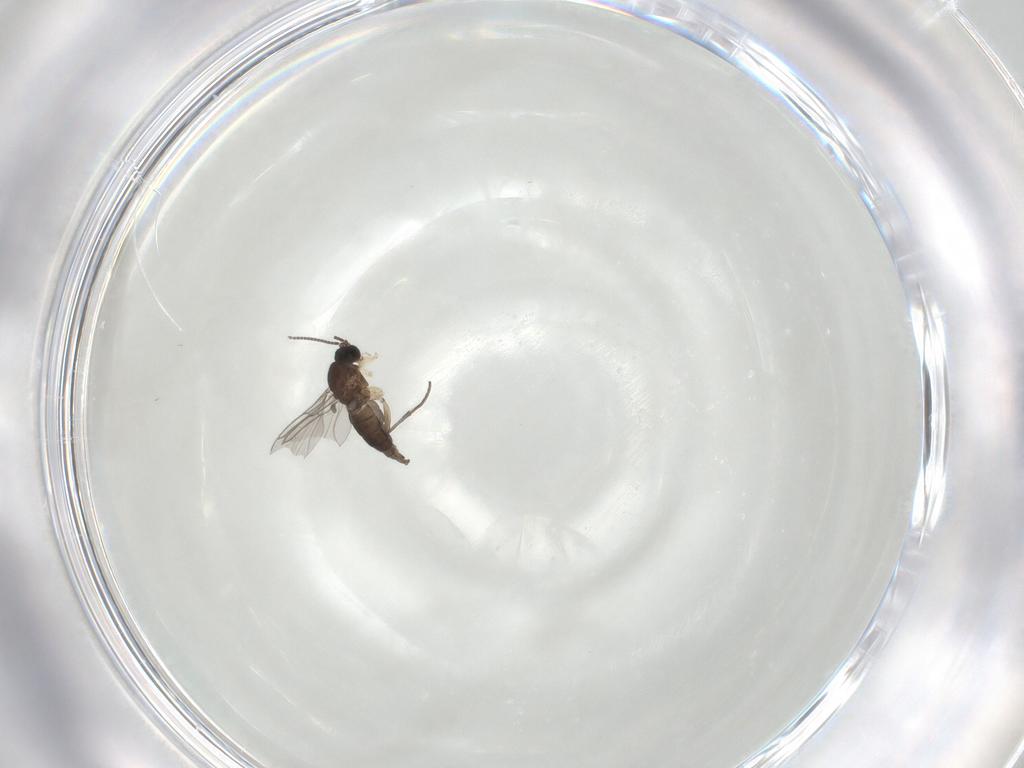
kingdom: Animalia
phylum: Arthropoda
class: Insecta
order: Diptera
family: Sciaridae
